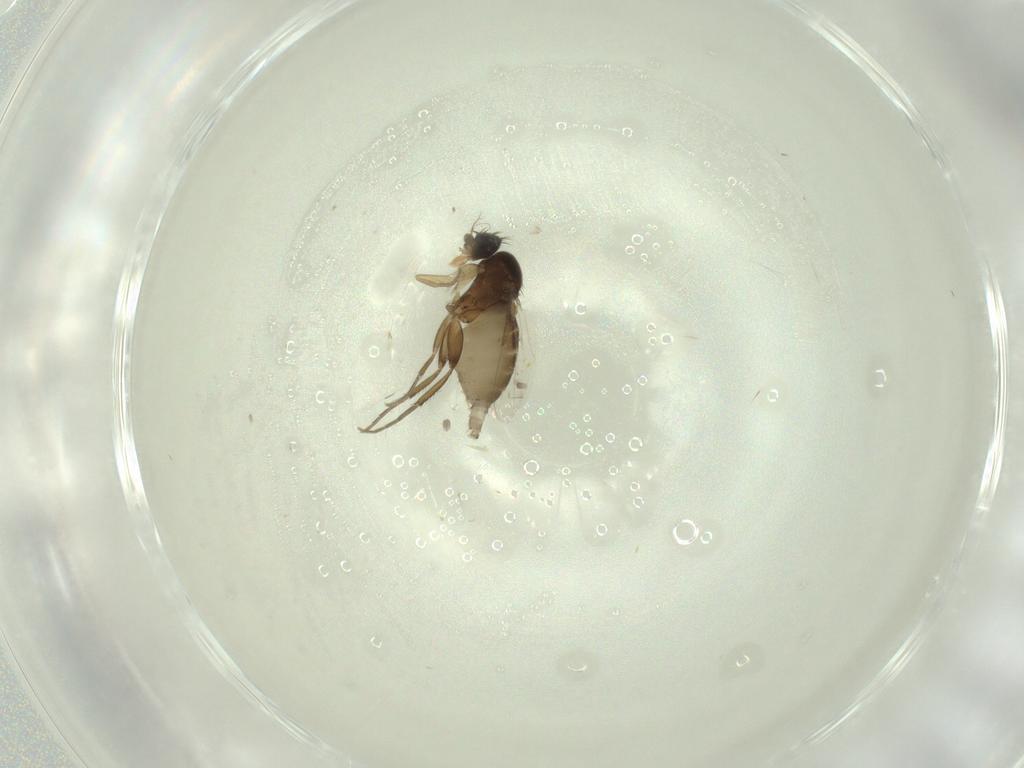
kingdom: Animalia
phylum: Arthropoda
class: Insecta
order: Diptera
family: Phoridae
